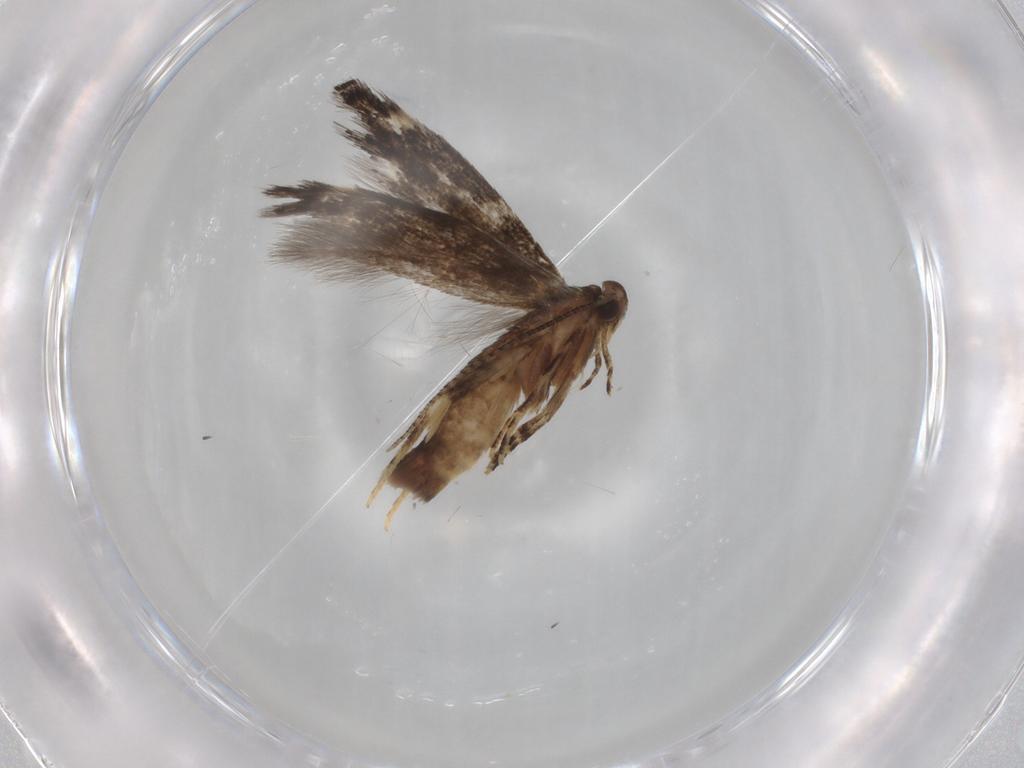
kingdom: Animalia
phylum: Arthropoda
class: Insecta
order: Lepidoptera
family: Elachistidae
